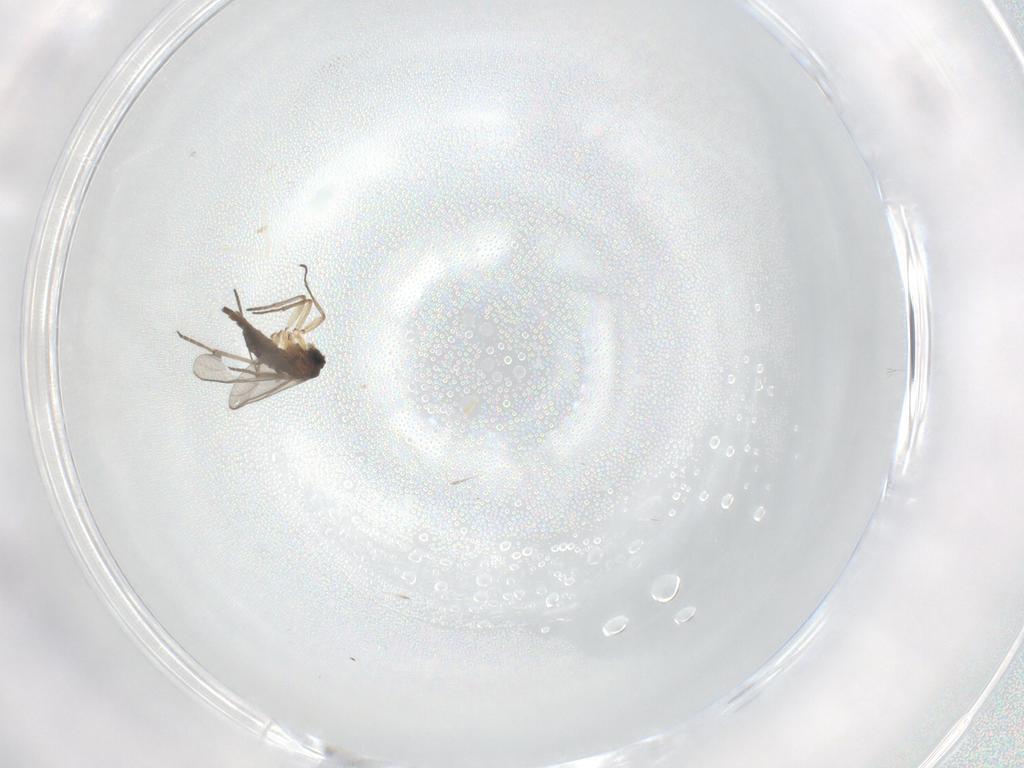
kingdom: Animalia
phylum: Arthropoda
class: Insecta
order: Diptera
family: Sciaridae
